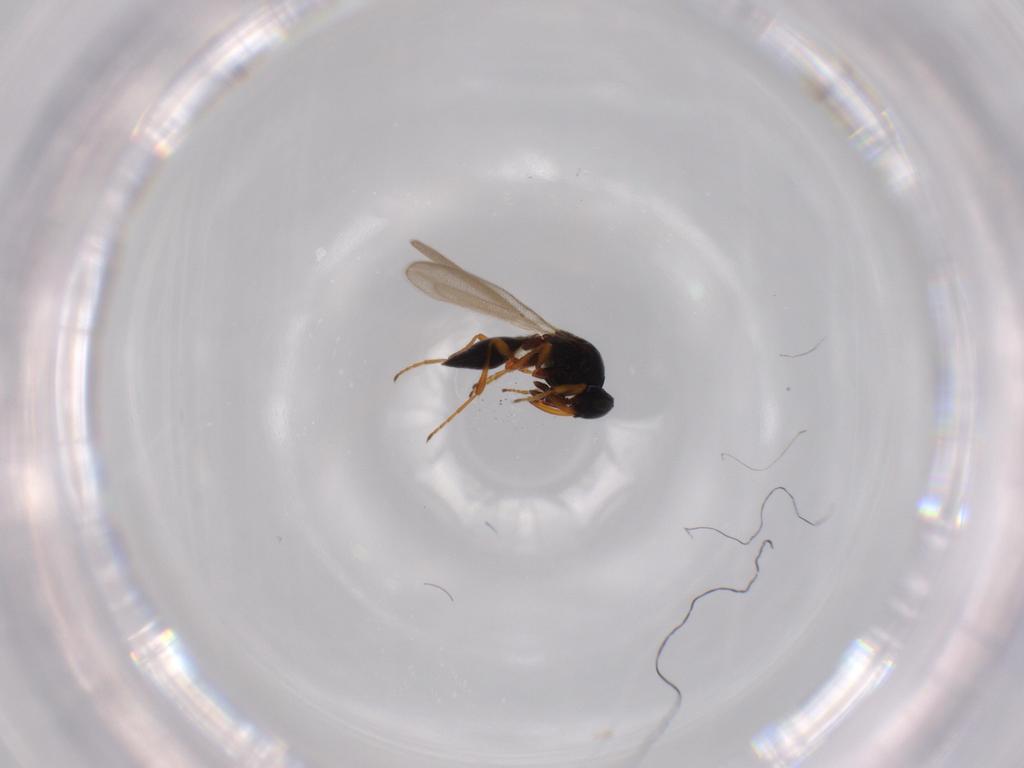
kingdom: Animalia
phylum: Arthropoda
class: Insecta
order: Hymenoptera
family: Platygastridae
